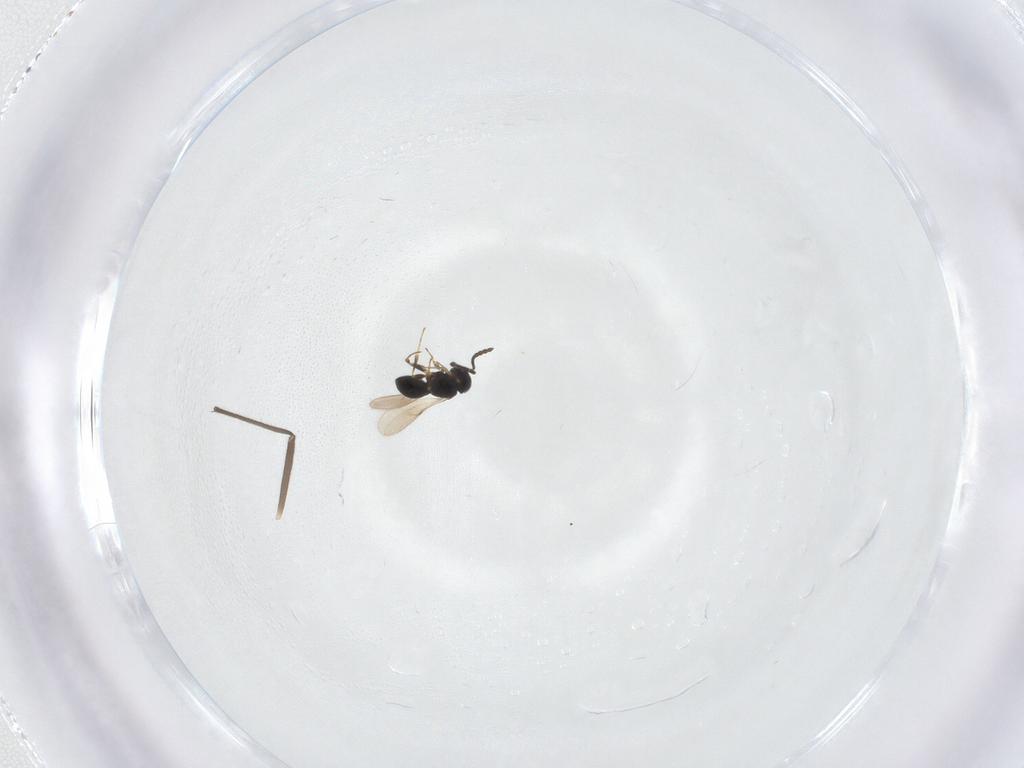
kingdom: Animalia
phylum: Arthropoda
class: Insecta
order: Hymenoptera
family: Scelionidae
